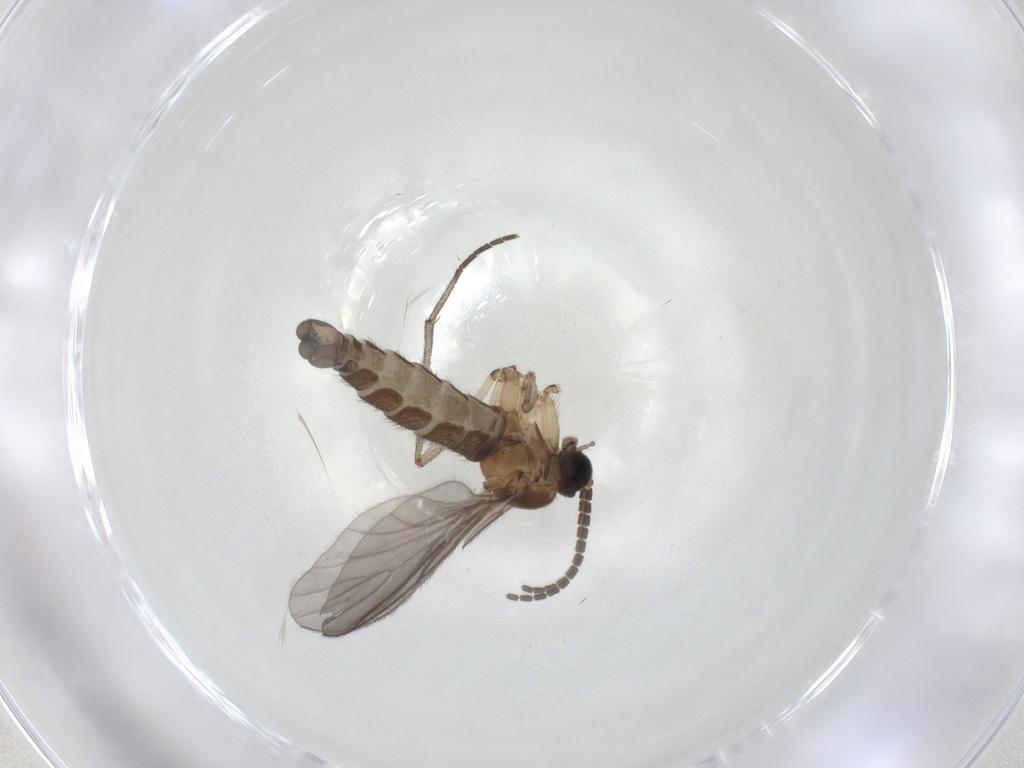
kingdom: Animalia
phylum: Arthropoda
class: Insecta
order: Diptera
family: Sciaridae
